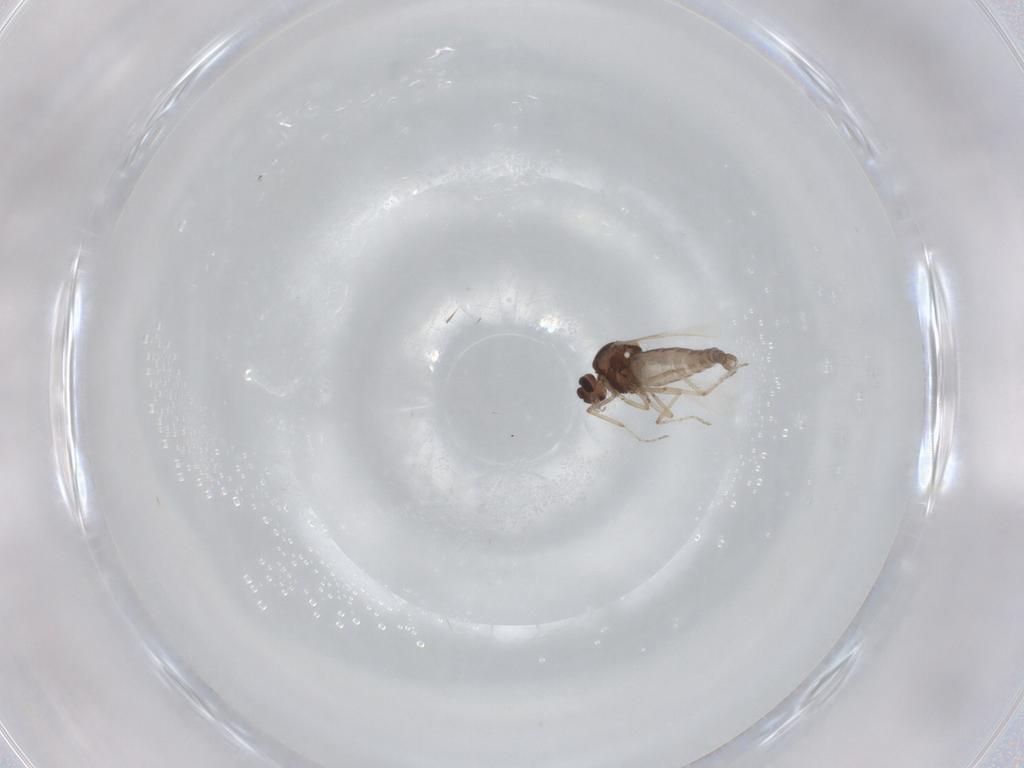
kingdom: Animalia
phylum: Arthropoda
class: Insecta
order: Diptera
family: Ceratopogonidae
